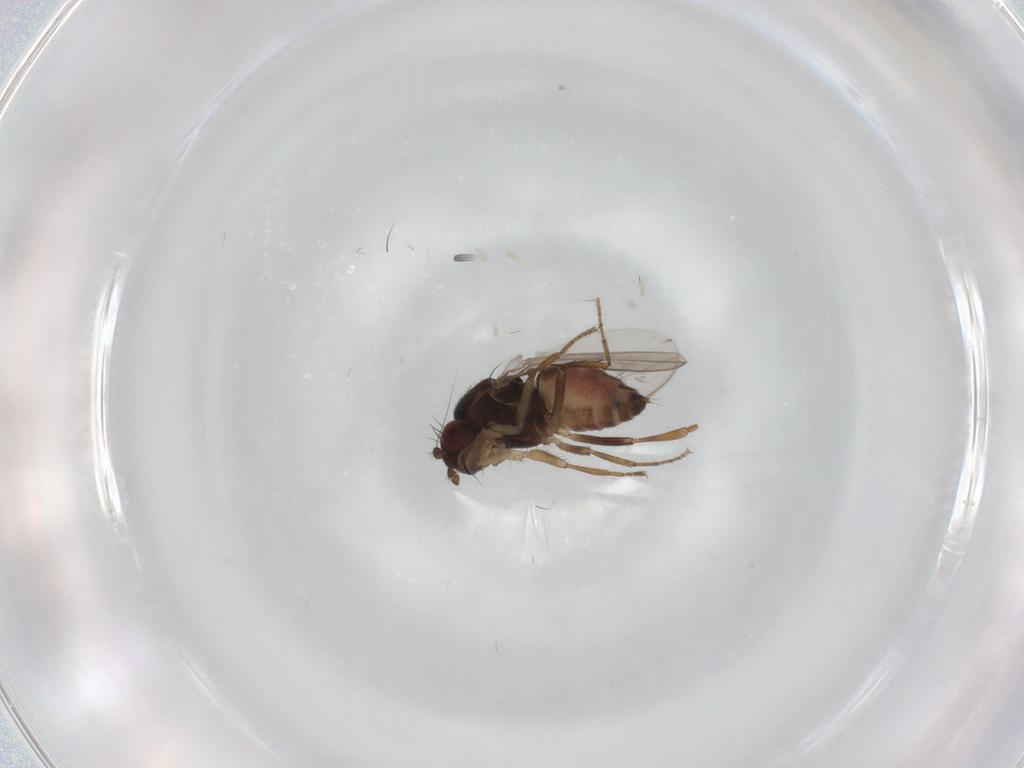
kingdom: Animalia
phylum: Arthropoda
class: Insecta
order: Diptera
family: Sphaeroceridae
